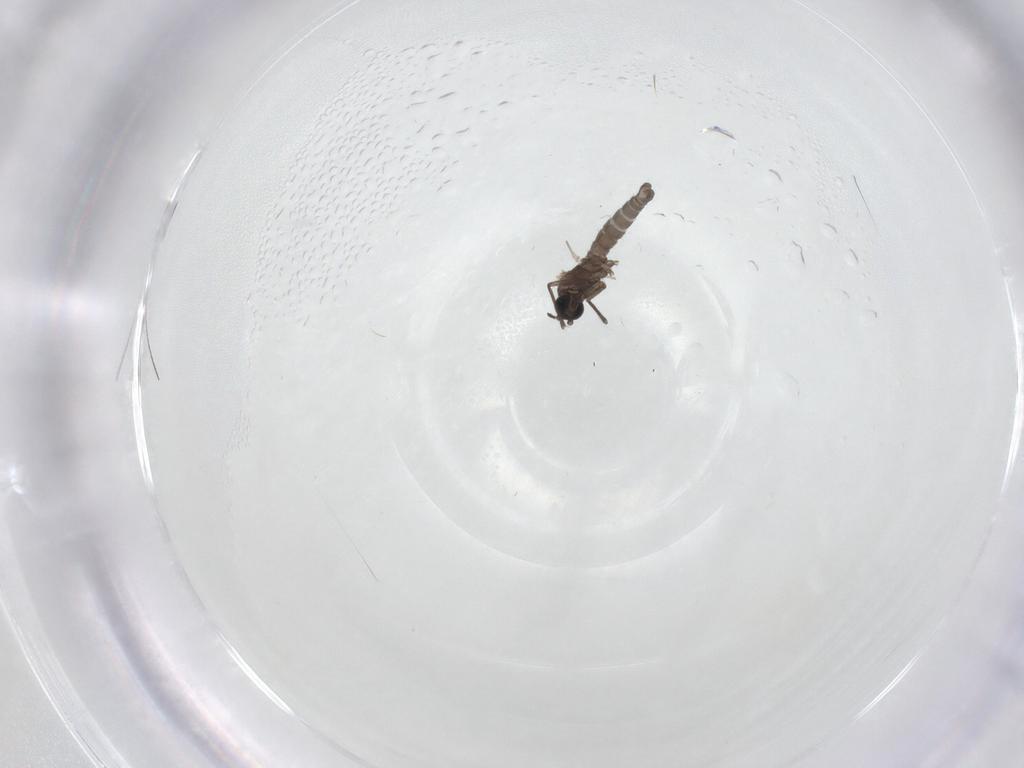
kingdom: Animalia
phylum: Arthropoda
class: Insecta
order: Diptera
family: Sciaridae
